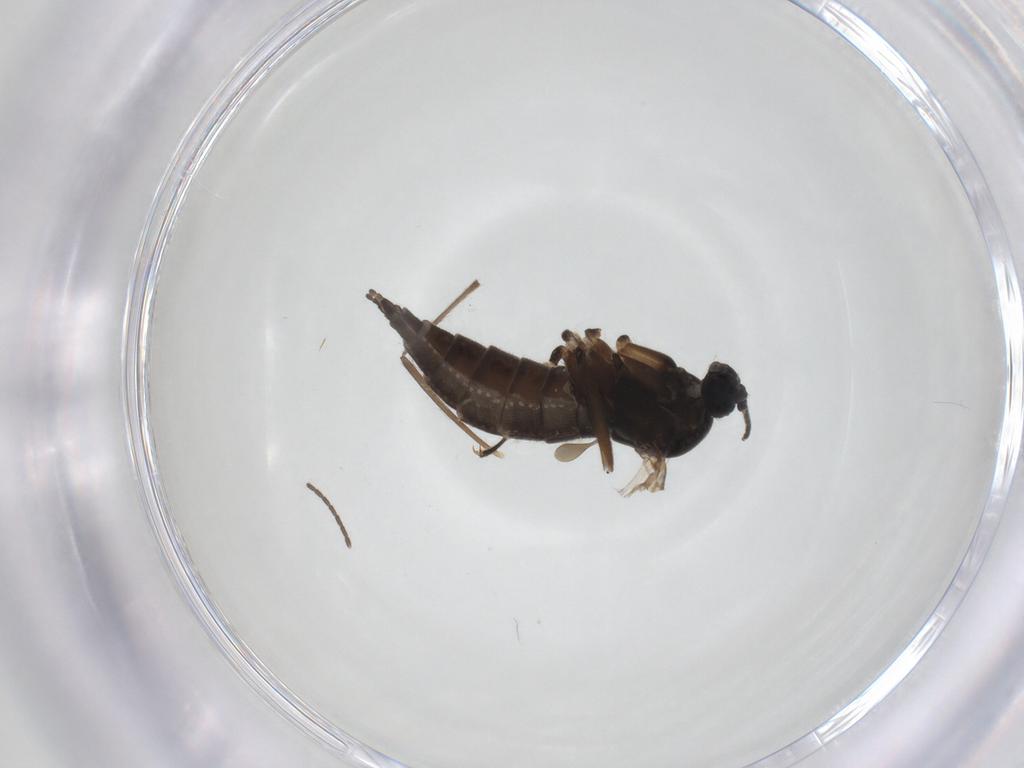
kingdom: Animalia
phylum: Arthropoda
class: Insecta
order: Diptera
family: Sciaridae
